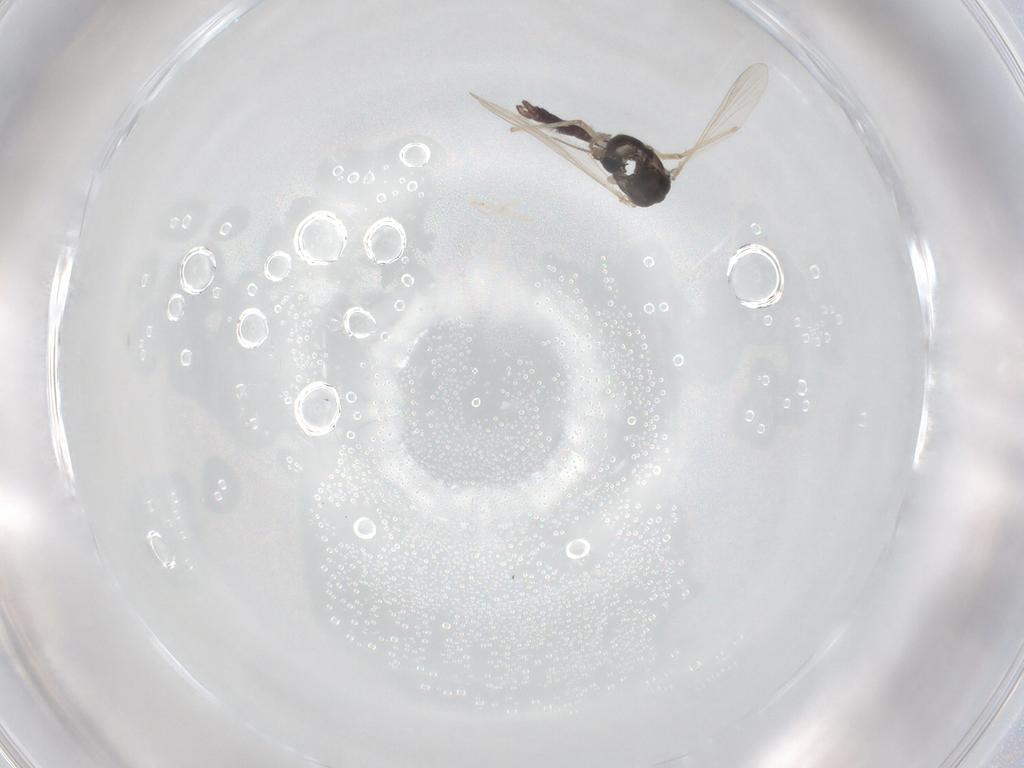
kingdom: Animalia
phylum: Arthropoda
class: Insecta
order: Diptera
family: Chironomidae
